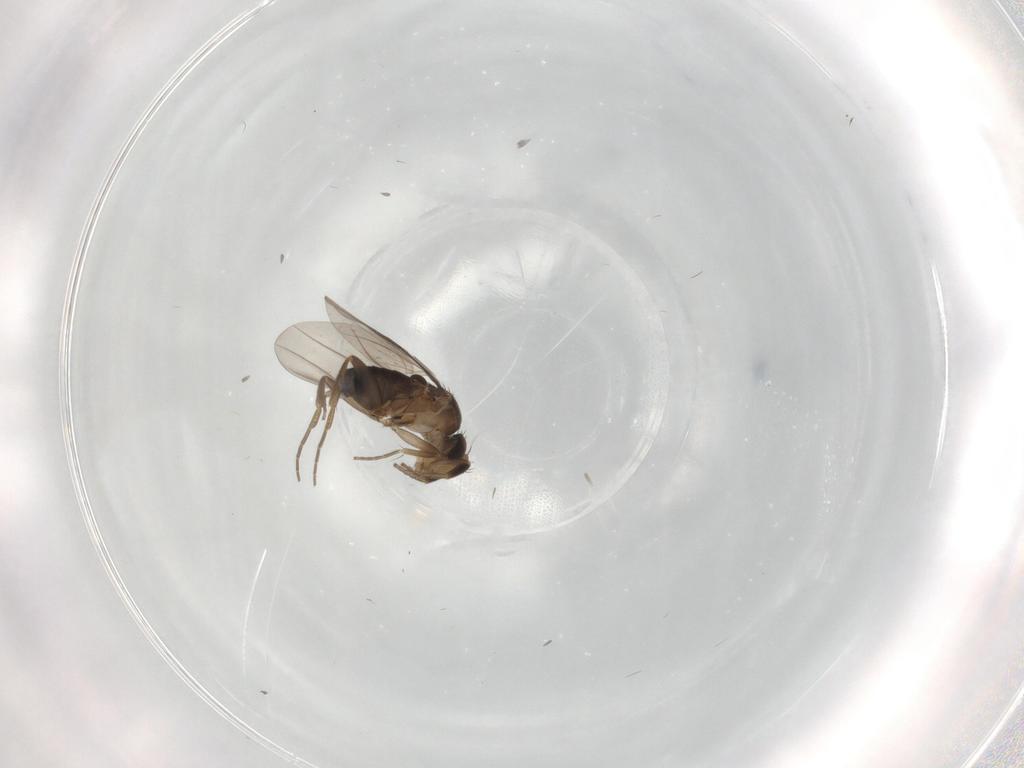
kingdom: Animalia
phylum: Arthropoda
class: Insecta
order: Diptera
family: Phoridae
